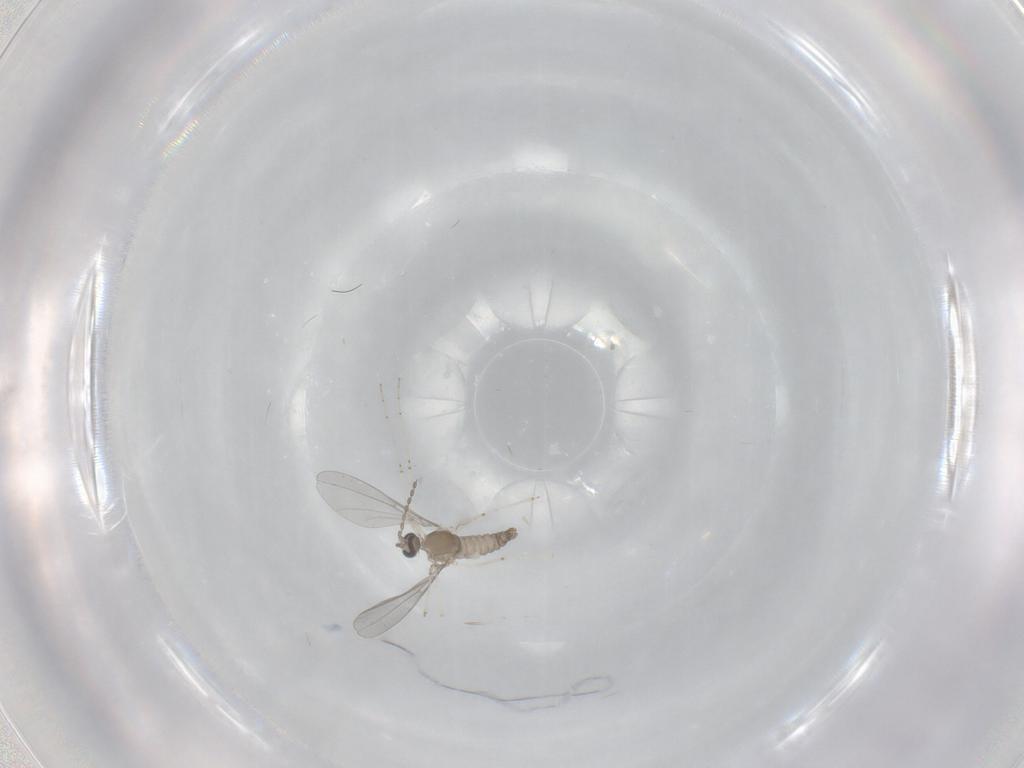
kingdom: Animalia
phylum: Arthropoda
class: Insecta
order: Diptera
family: Cecidomyiidae
